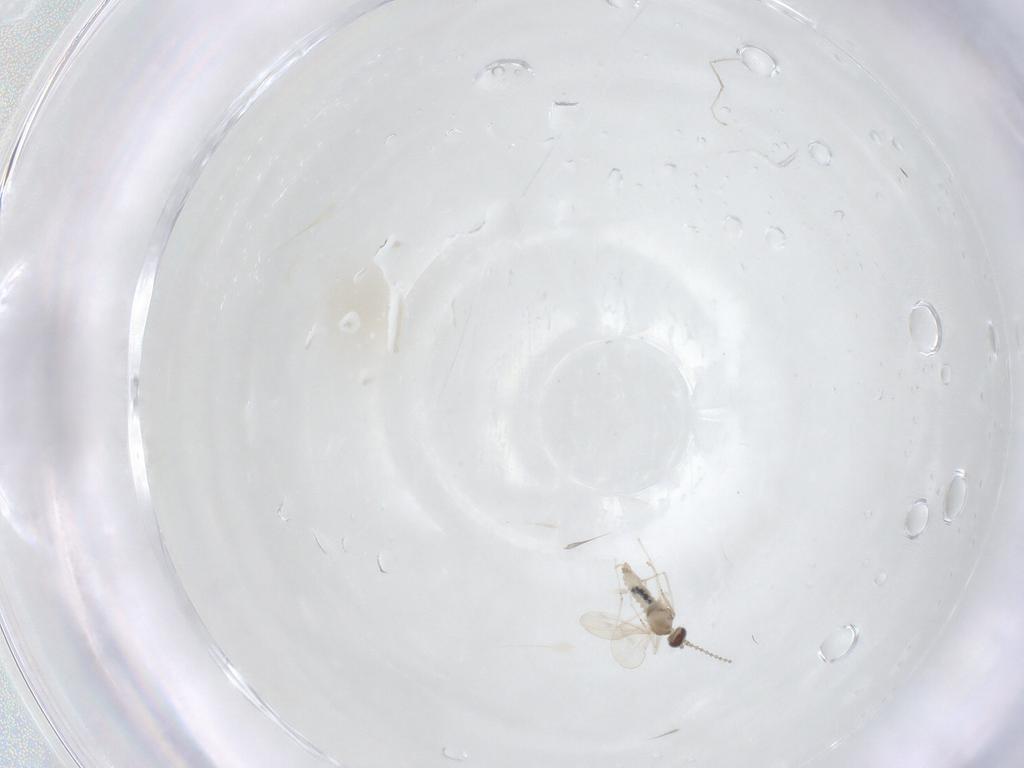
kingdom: Animalia
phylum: Arthropoda
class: Insecta
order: Diptera
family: Cecidomyiidae
